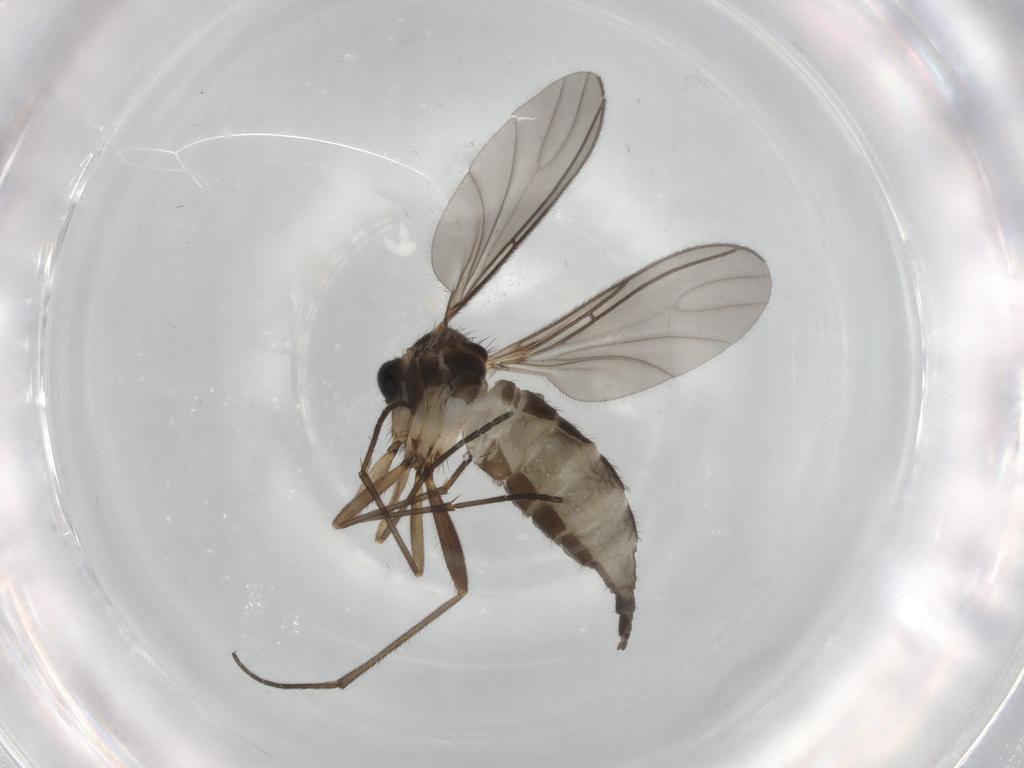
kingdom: Animalia
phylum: Arthropoda
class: Insecta
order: Diptera
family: Sciaridae
